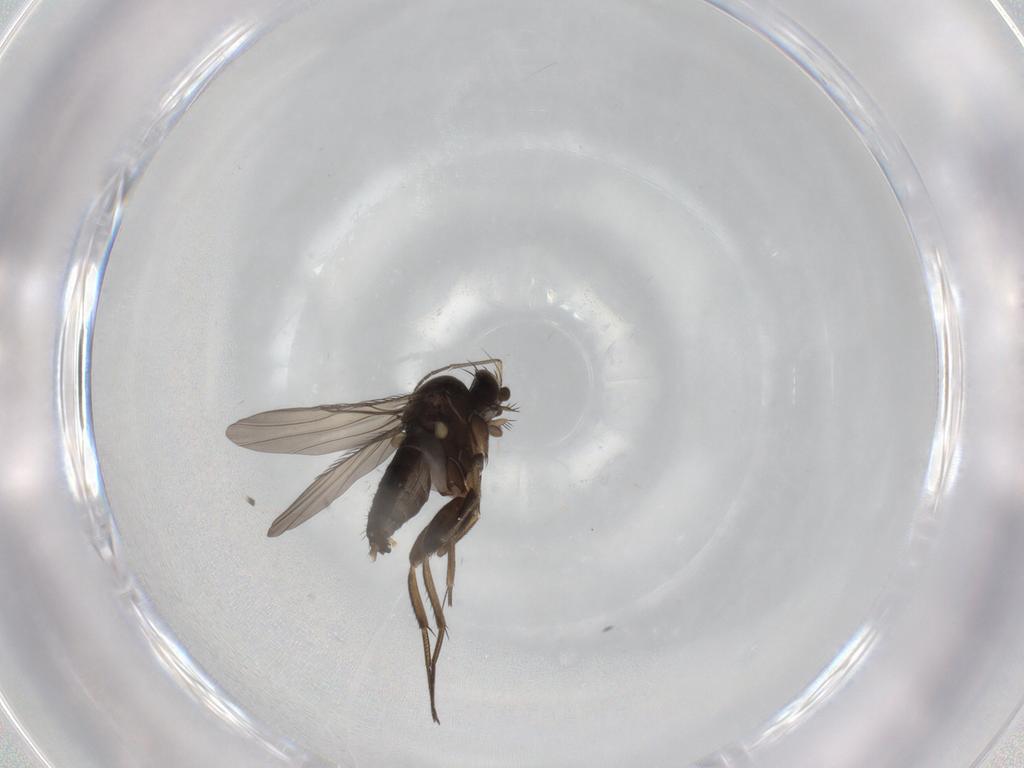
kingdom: Animalia
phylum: Arthropoda
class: Insecta
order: Diptera
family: Phoridae
